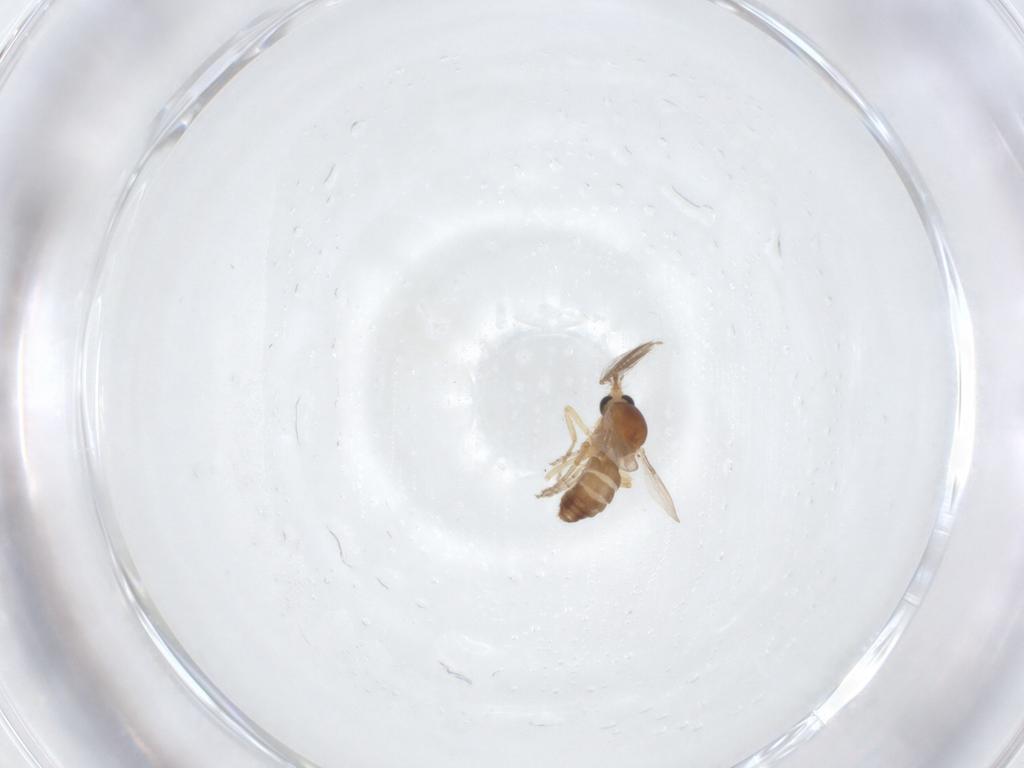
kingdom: Animalia
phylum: Arthropoda
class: Insecta
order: Diptera
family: Ceratopogonidae
